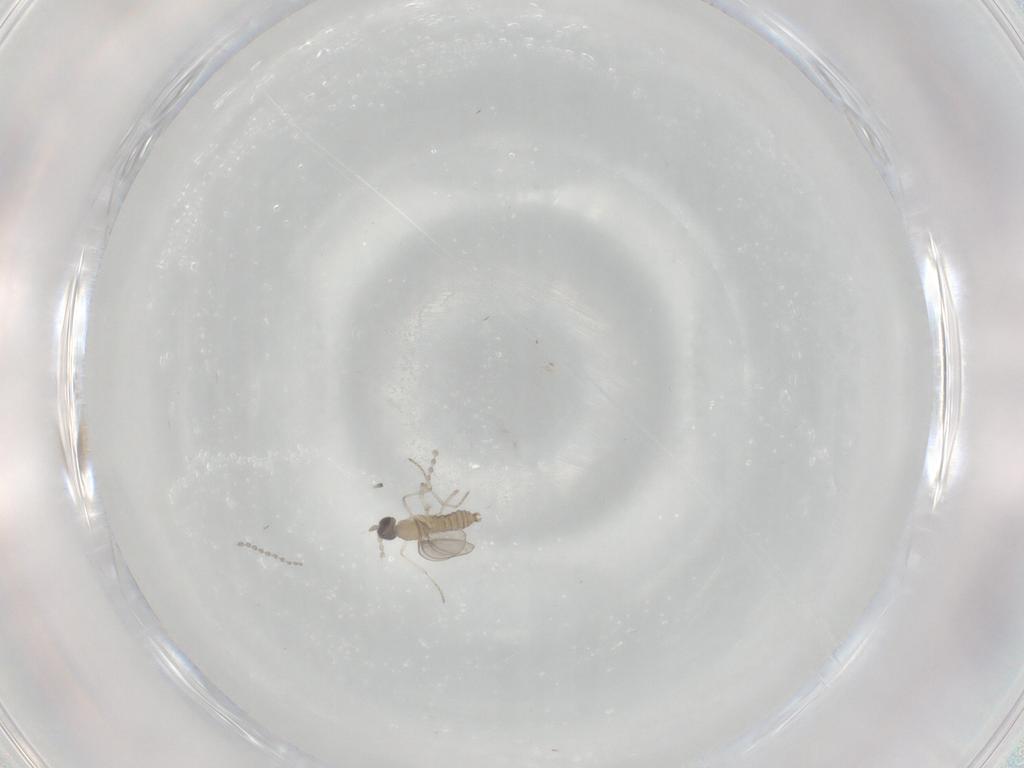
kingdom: Animalia
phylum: Arthropoda
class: Insecta
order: Diptera
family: Cecidomyiidae
